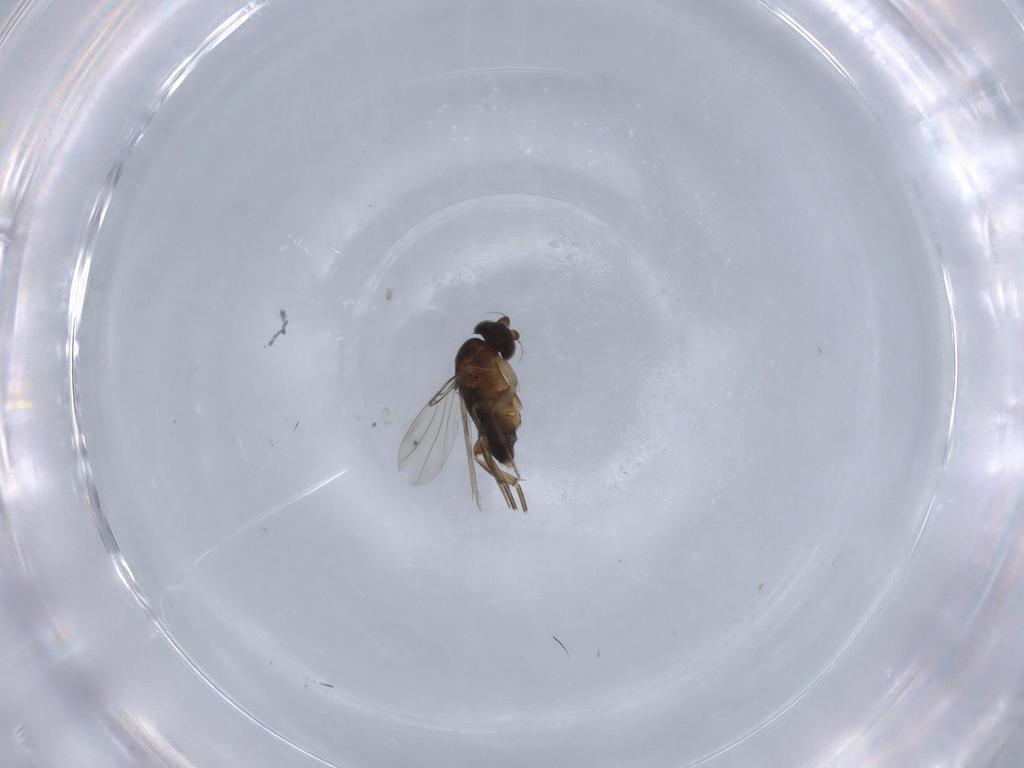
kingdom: Animalia
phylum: Arthropoda
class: Insecta
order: Diptera
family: Phoridae
